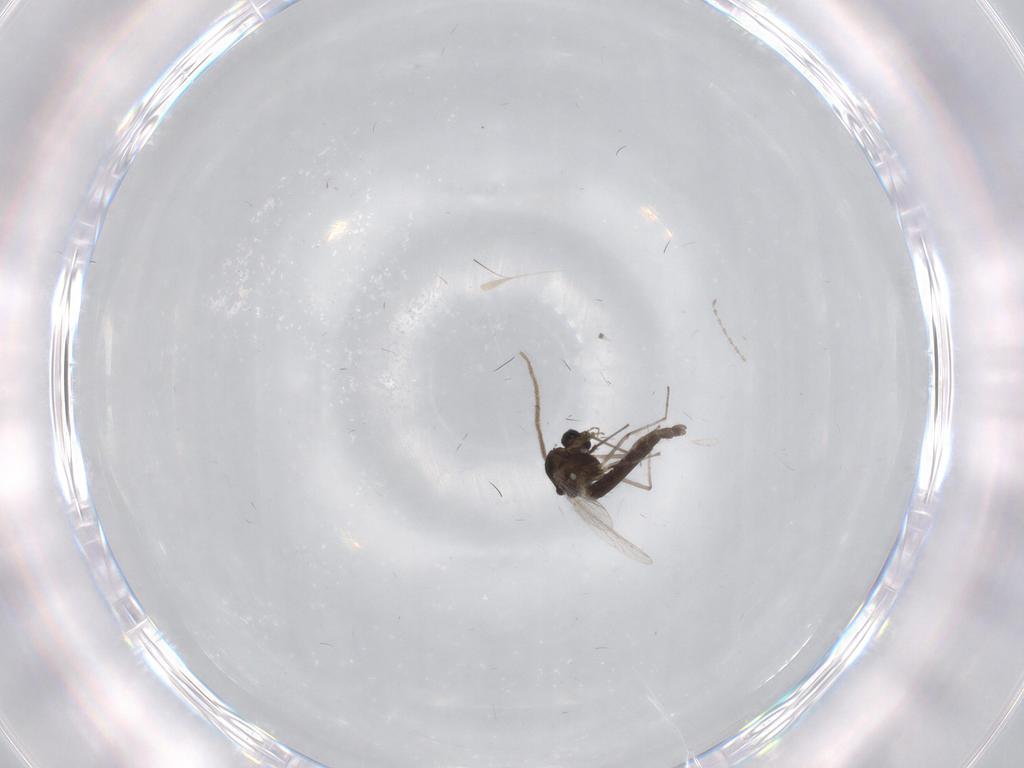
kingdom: Animalia
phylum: Arthropoda
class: Insecta
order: Diptera
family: Chironomidae
